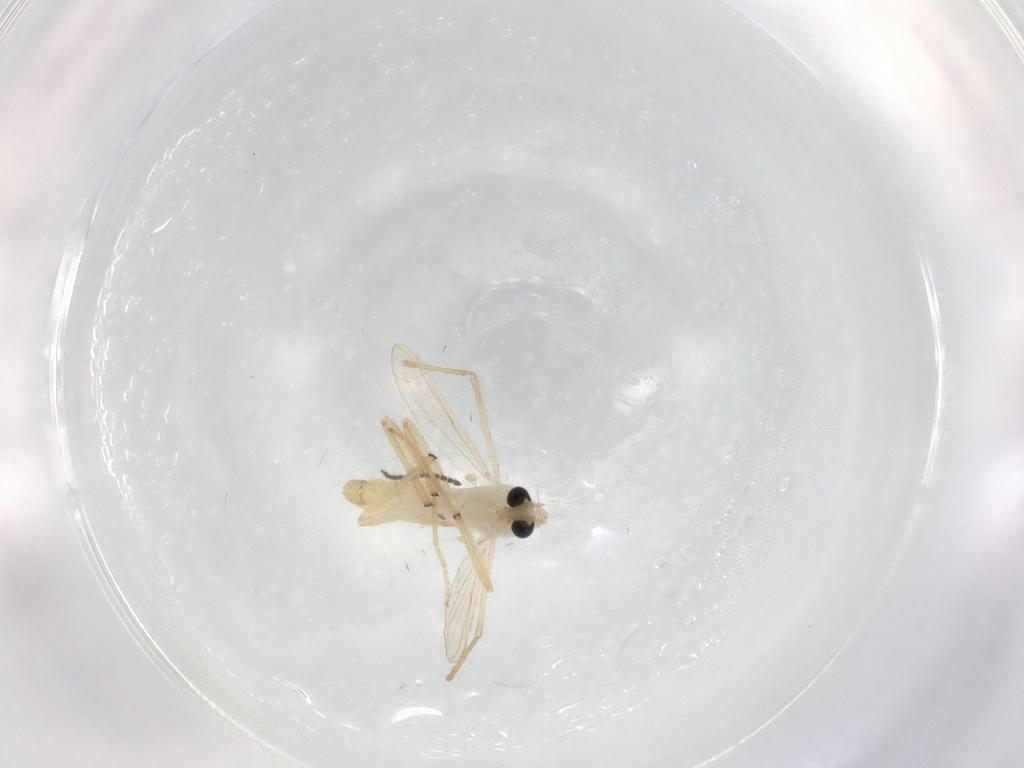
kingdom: Animalia
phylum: Arthropoda
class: Insecta
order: Diptera
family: Chironomidae
